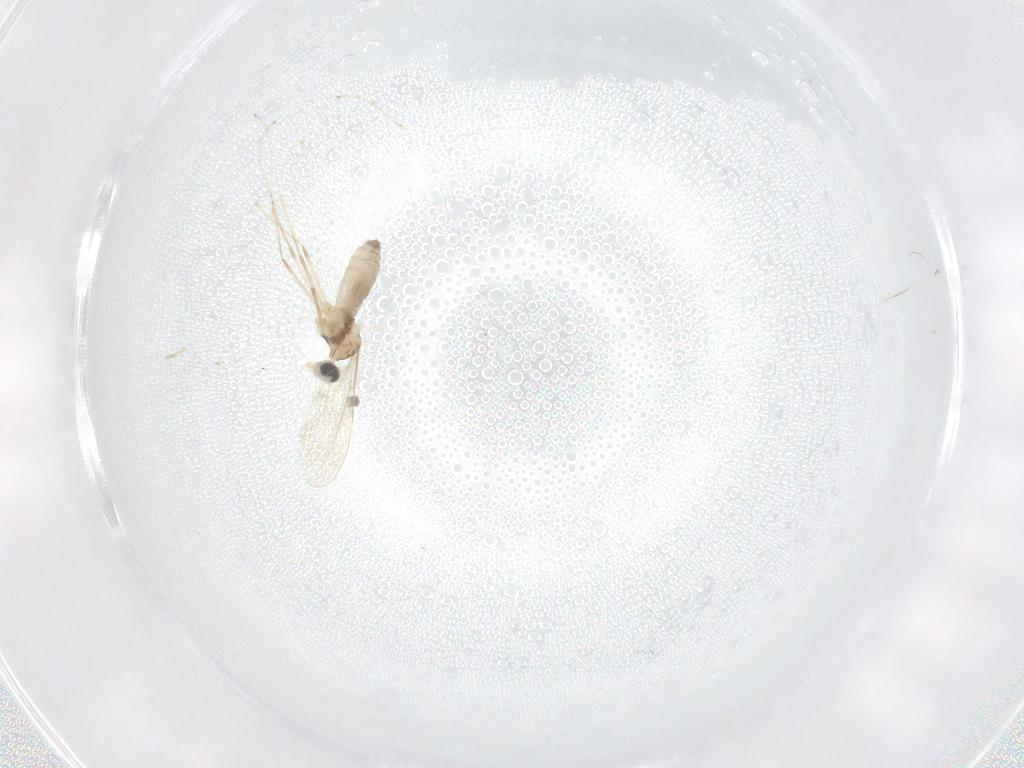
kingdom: Animalia
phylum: Arthropoda
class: Insecta
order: Diptera
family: Cecidomyiidae
